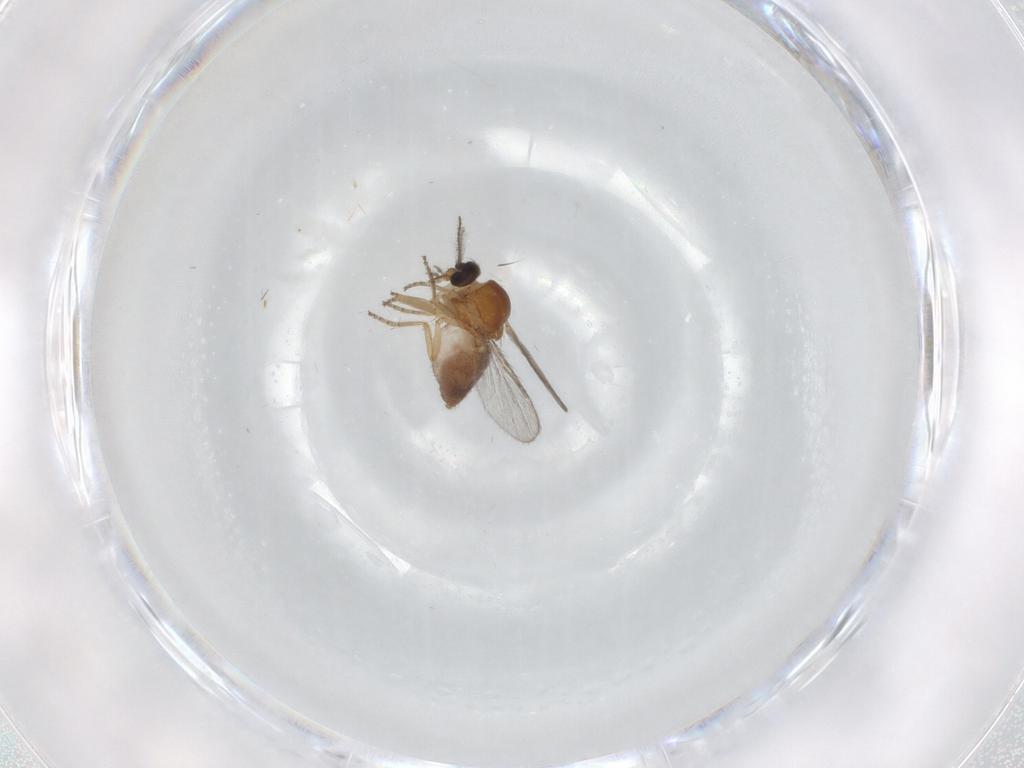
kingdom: Animalia
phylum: Arthropoda
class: Insecta
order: Diptera
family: Ceratopogonidae
